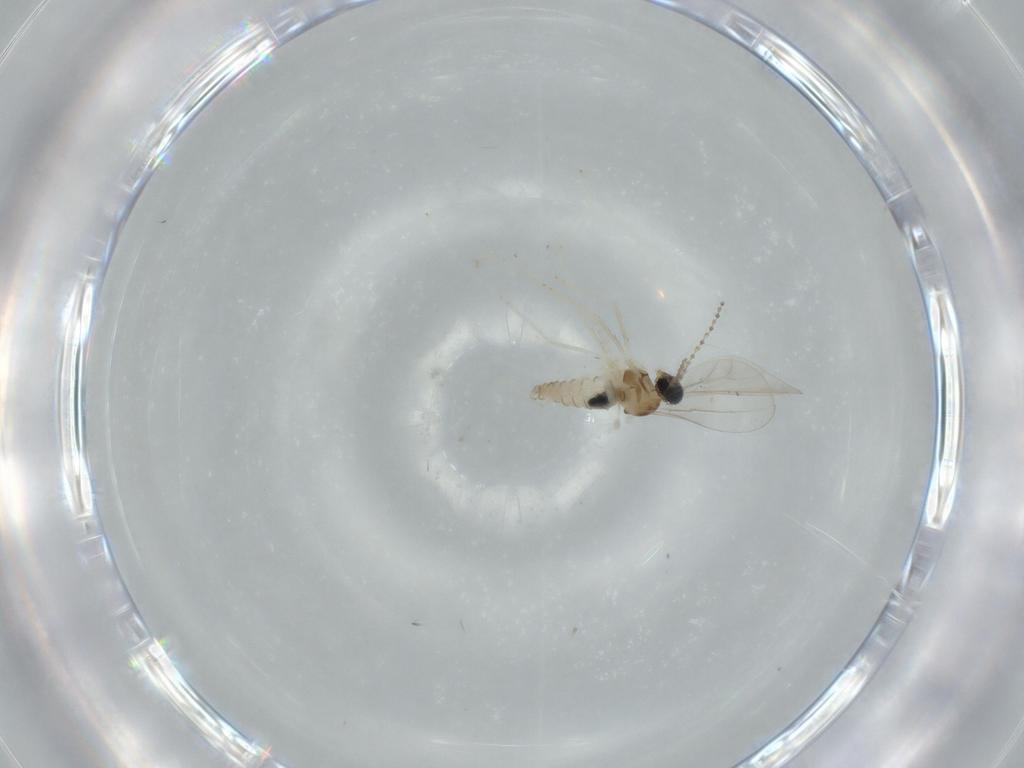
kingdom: Animalia
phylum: Arthropoda
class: Insecta
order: Diptera
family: Cecidomyiidae
